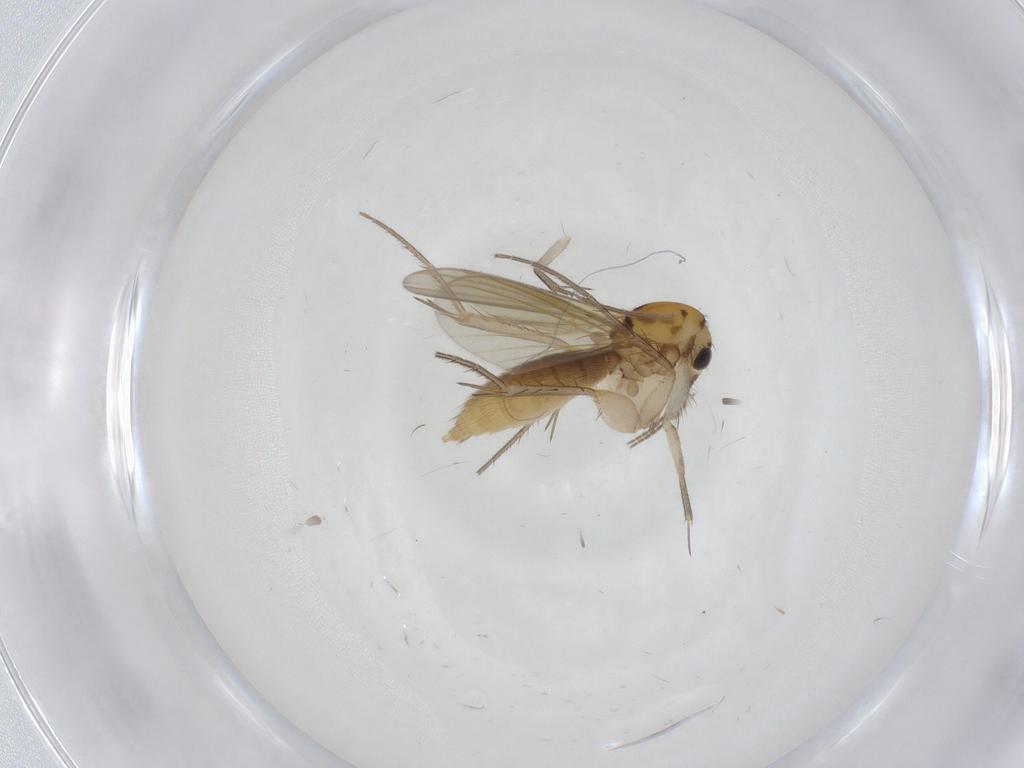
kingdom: Animalia
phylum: Arthropoda
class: Insecta
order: Diptera
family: Mycetophilidae
